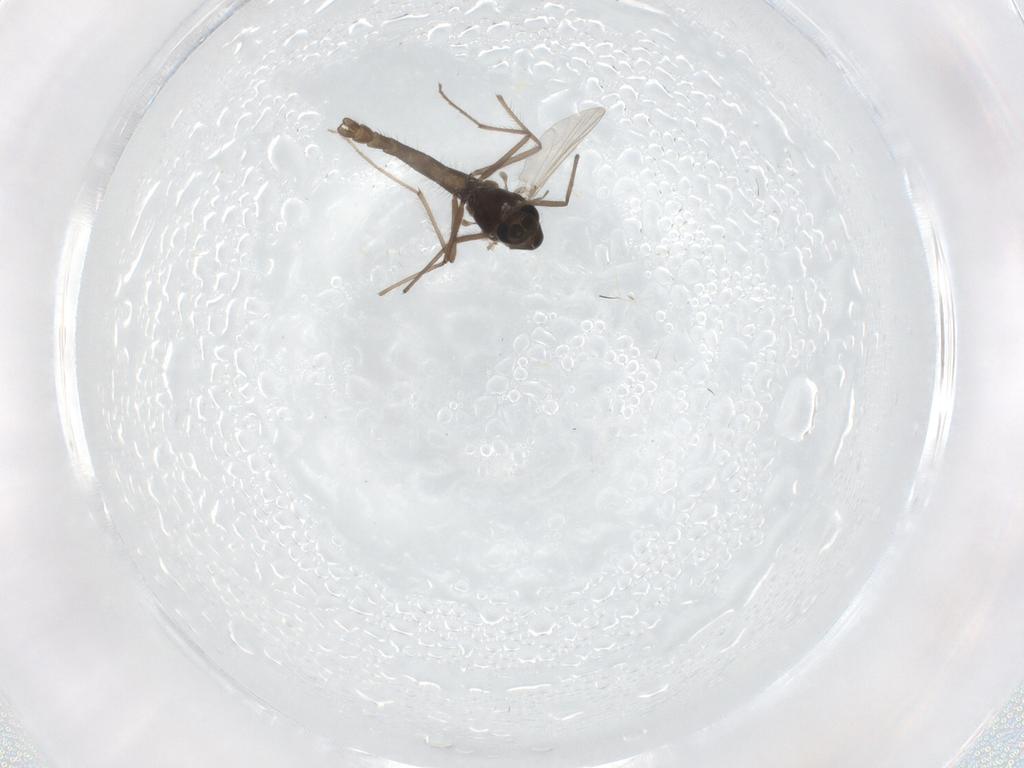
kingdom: Animalia
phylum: Arthropoda
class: Insecta
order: Diptera
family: Chironomidae
